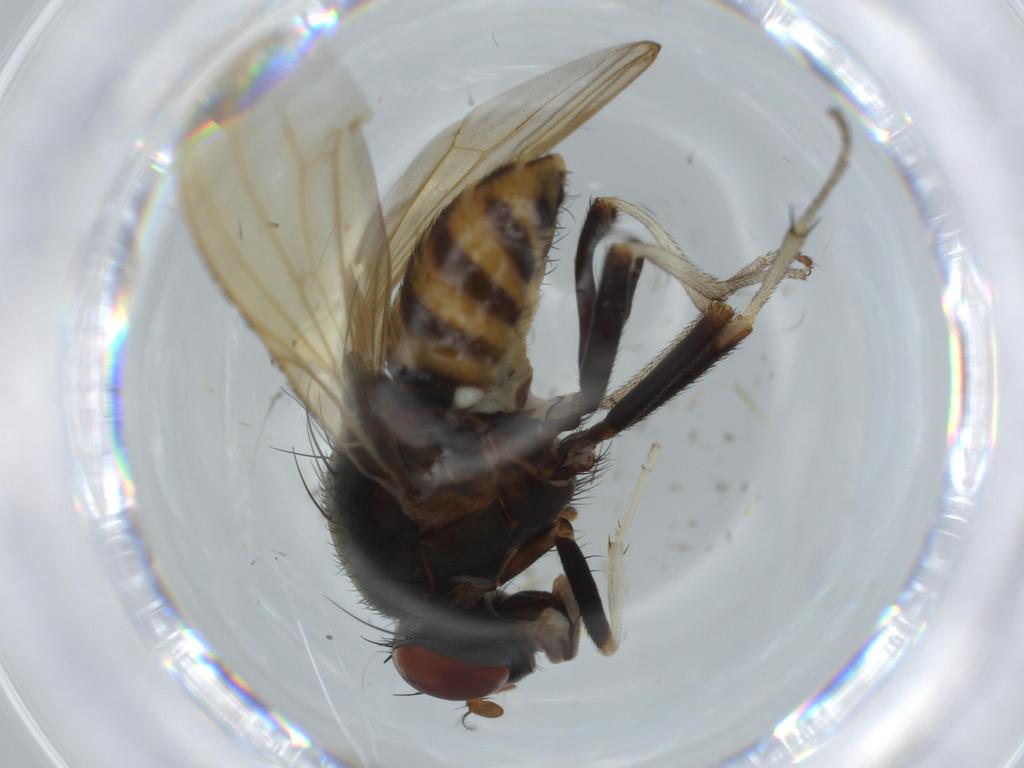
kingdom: Animalia
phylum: Arthropoda
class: Insecta
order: Diptera
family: Ceratopogonidae
